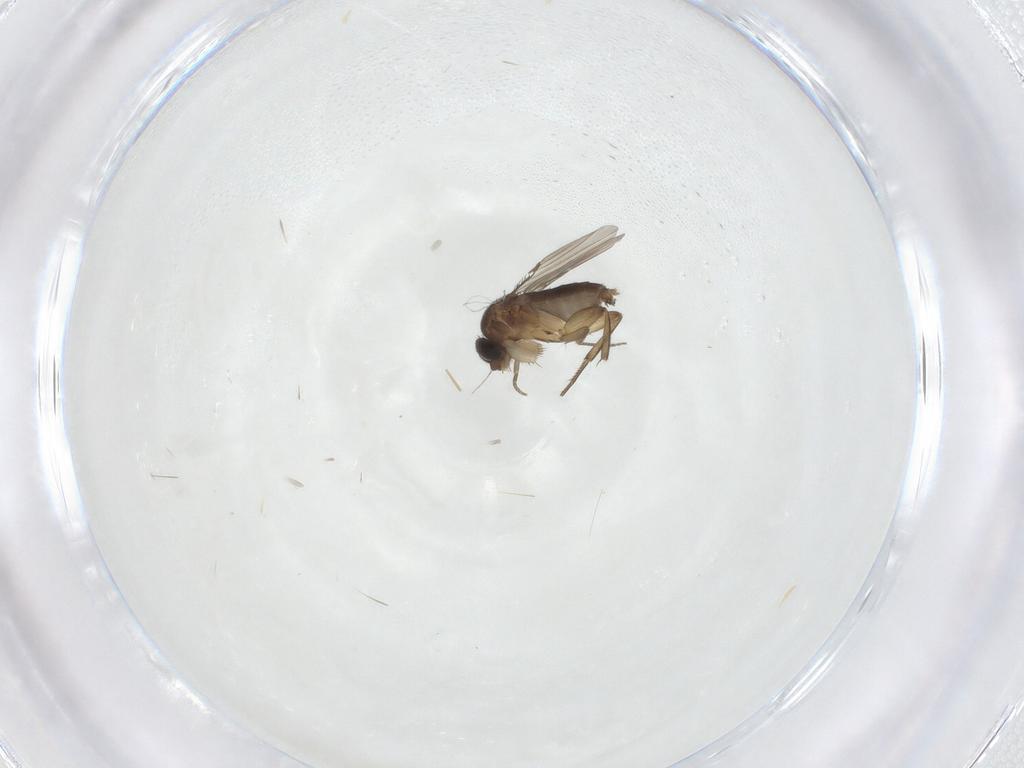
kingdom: Animalia
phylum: Arthropoda
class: Insecta
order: Diptera
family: Phoridae
